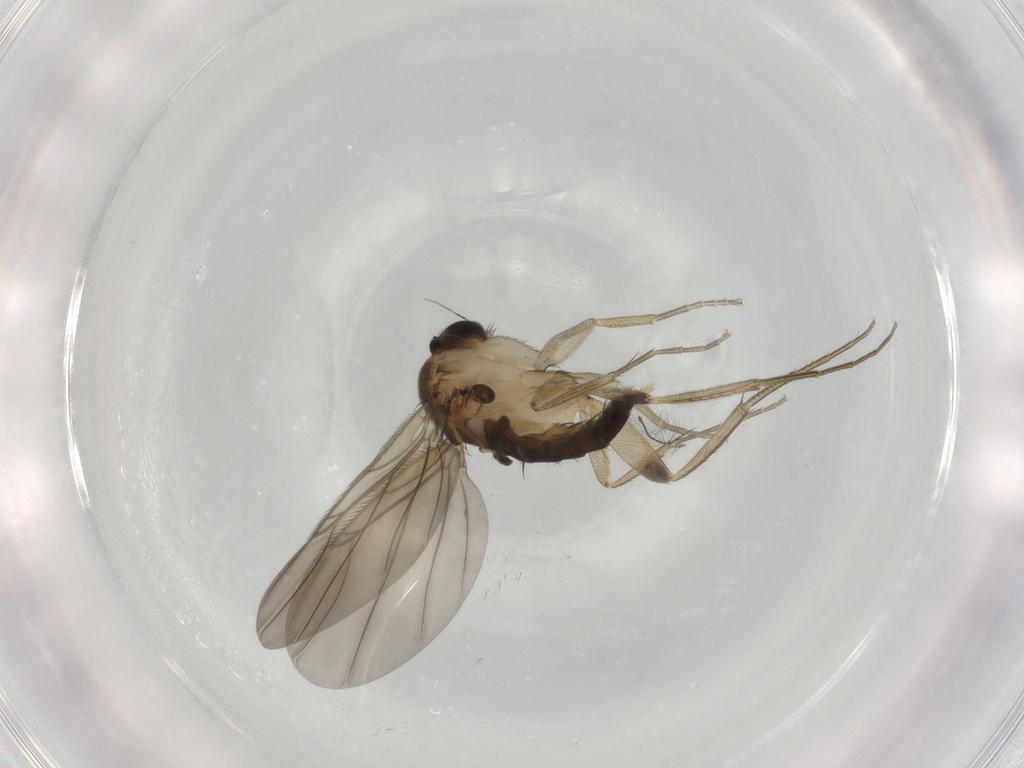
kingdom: Animalia
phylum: Arthropoda
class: Insecta
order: Diptera
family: Phoridae
